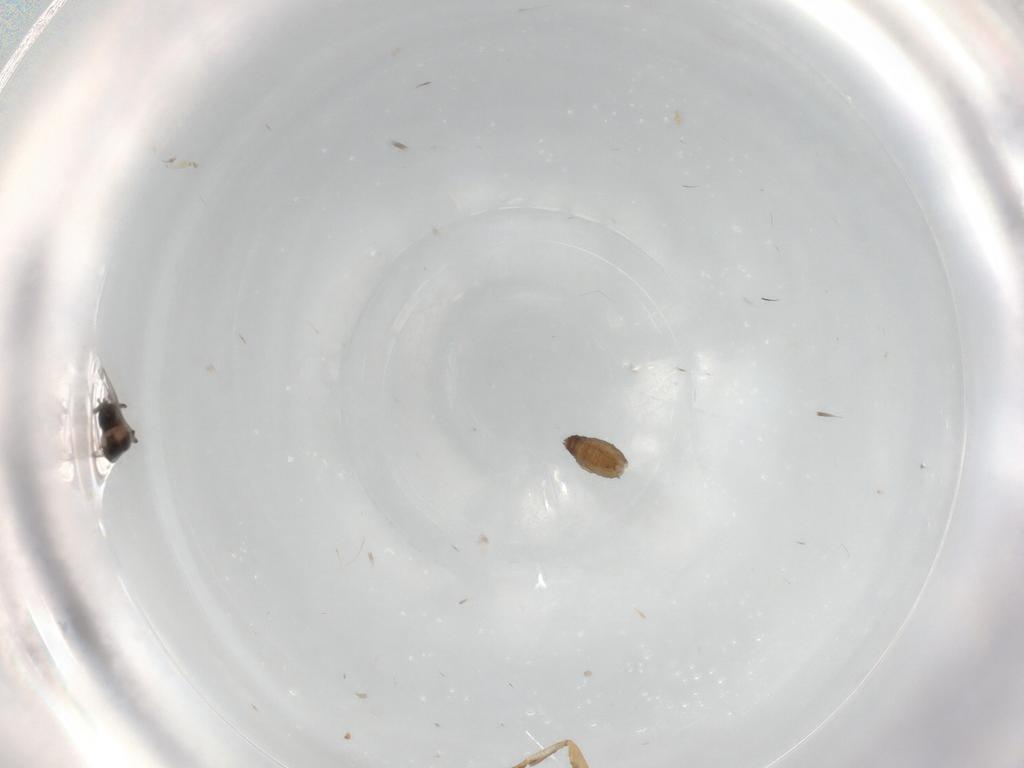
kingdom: Animalia
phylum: Arthropoda
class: Insecta
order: Diptera
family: Ceratopogonidae
